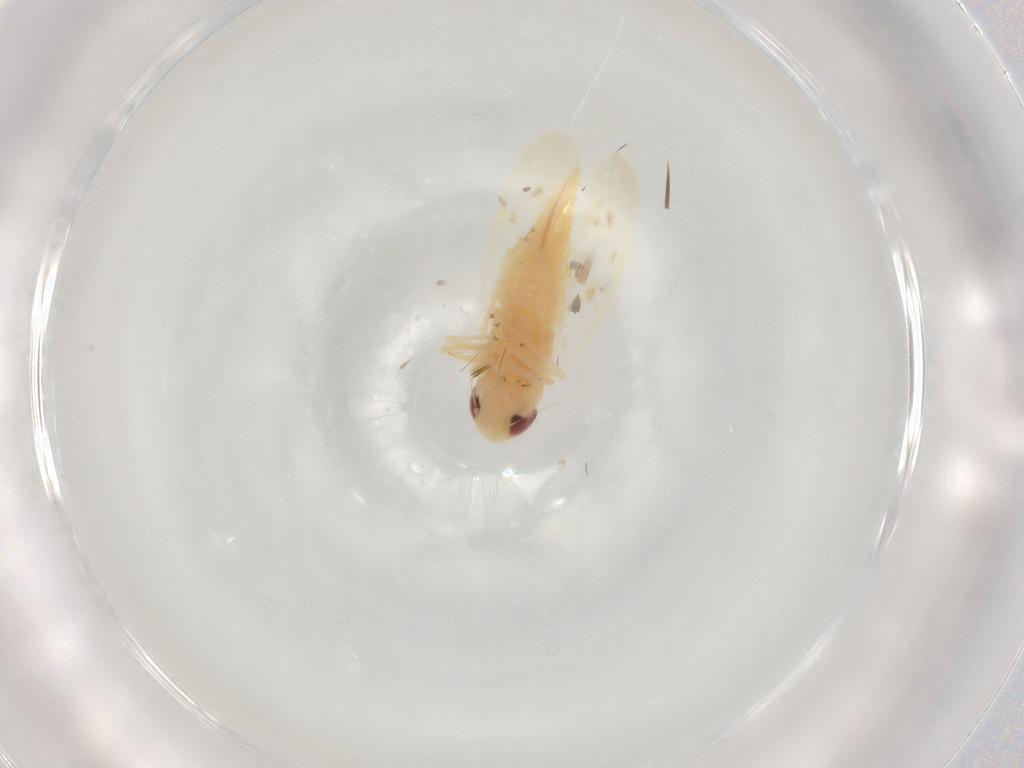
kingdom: Animalia
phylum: Arthropoda
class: Insecta
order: Hemiptera
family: Cicadellidae
